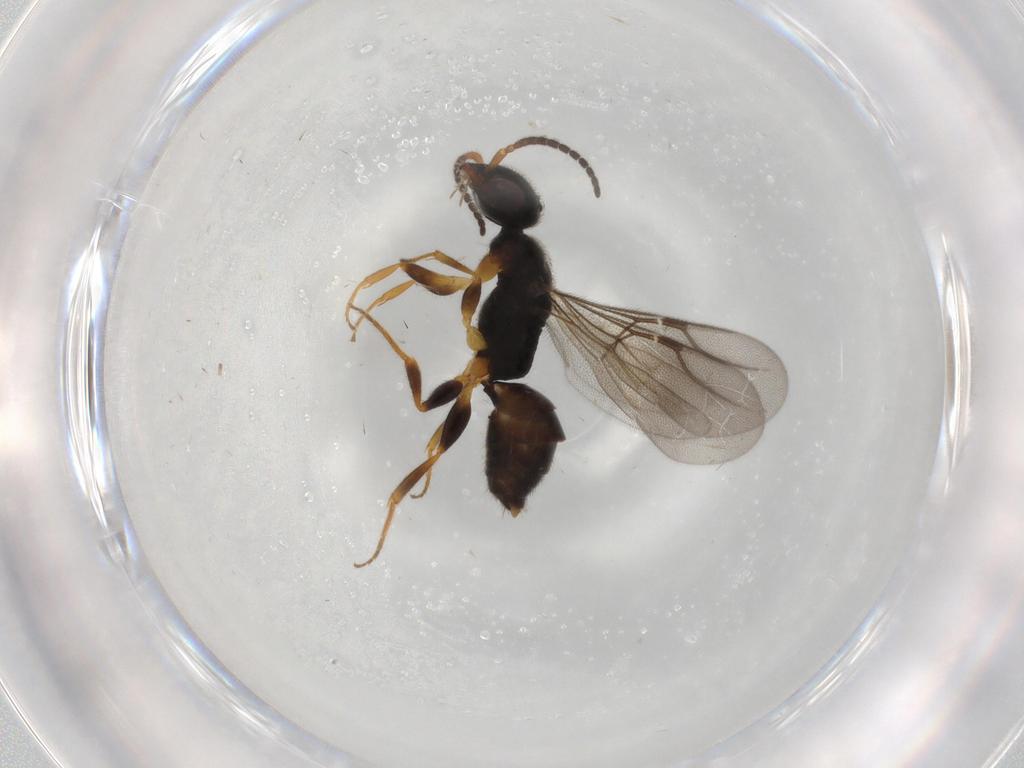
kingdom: Animalia
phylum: Arthropoda
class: Insecta
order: Hymenoptera
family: Bethylidae
